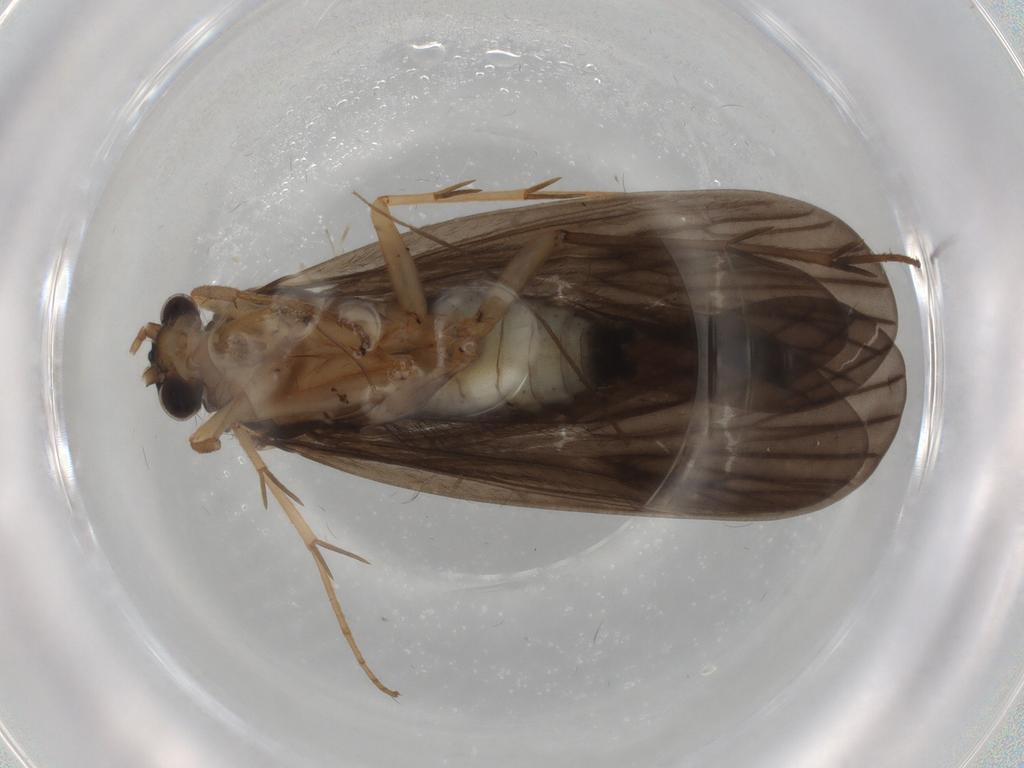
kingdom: Animalia
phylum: Arthropoda
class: Insecta
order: Trichoptera
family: Philopotamidae
